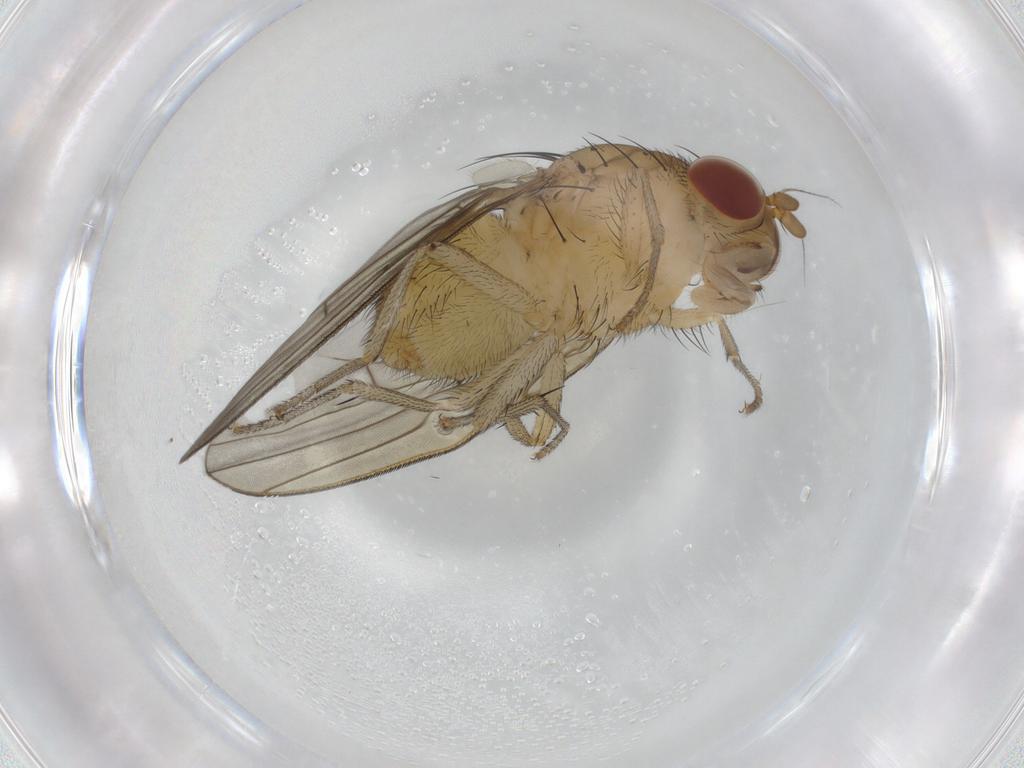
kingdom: Animalia
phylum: Arthropoda
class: Insecta
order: Diptera
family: Cecidomyiidae
